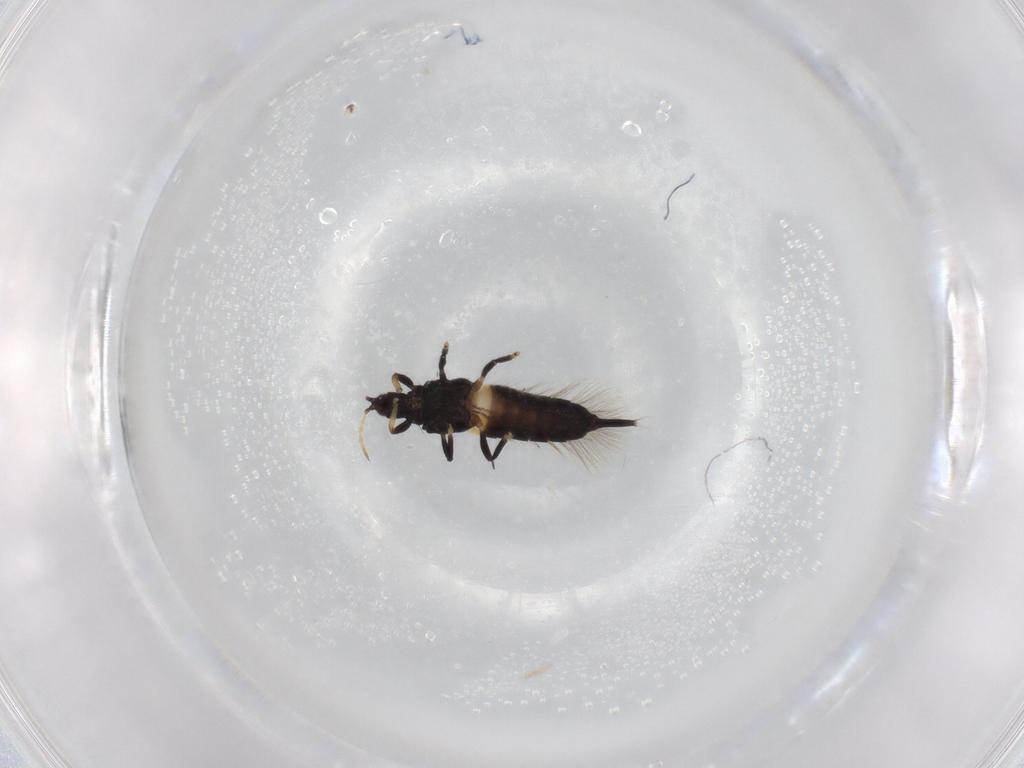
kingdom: Animalia
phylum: Arthropoda
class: Insecta
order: Thysanoptera
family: Phlaeothripidae
